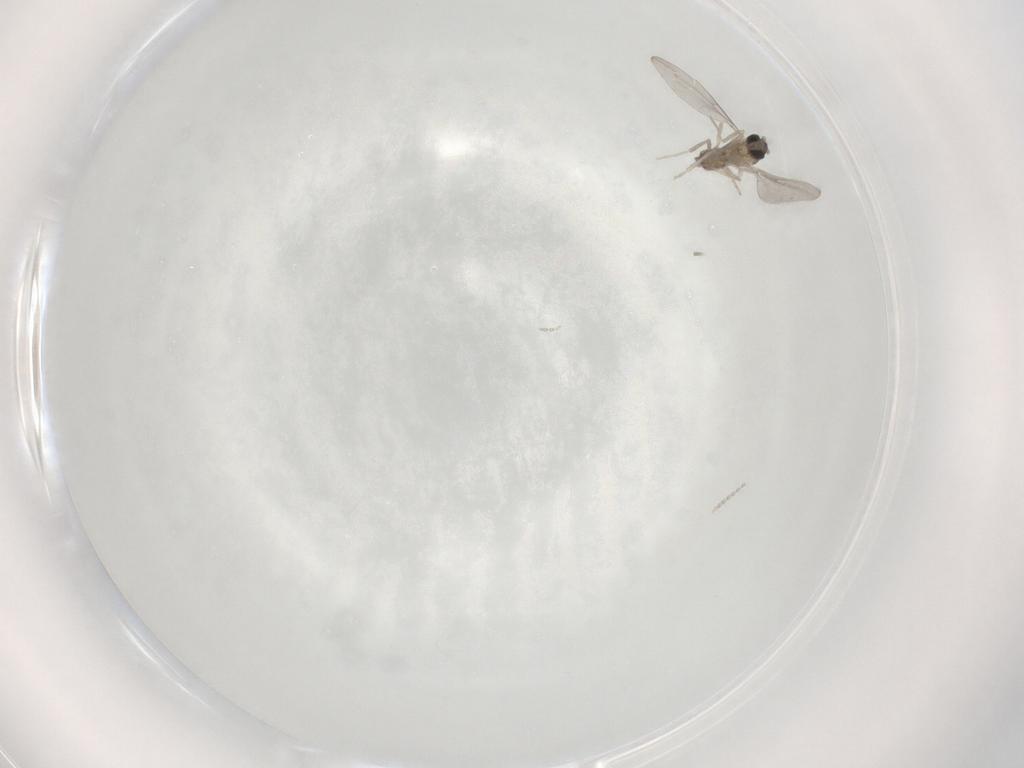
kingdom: Animalia
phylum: Arthropoda
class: Insecta
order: Diptera
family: Cecidomyiidae
